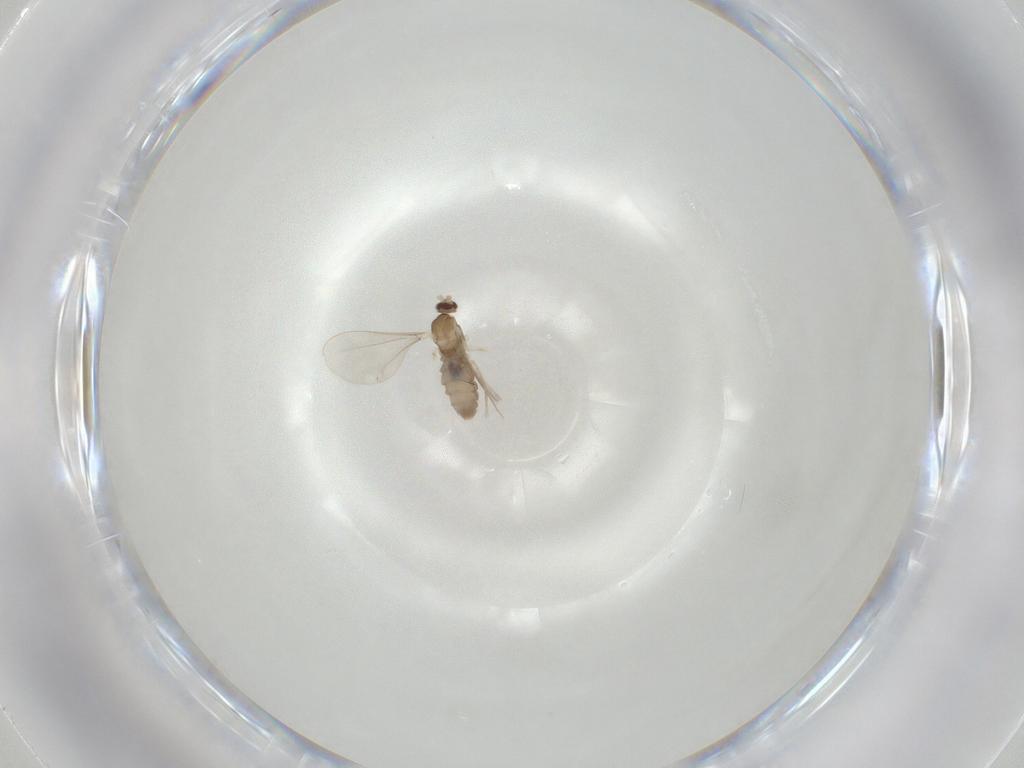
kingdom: Animalia
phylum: Arthropoda
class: Insecta
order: Diptera
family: Cecidomyiidae
